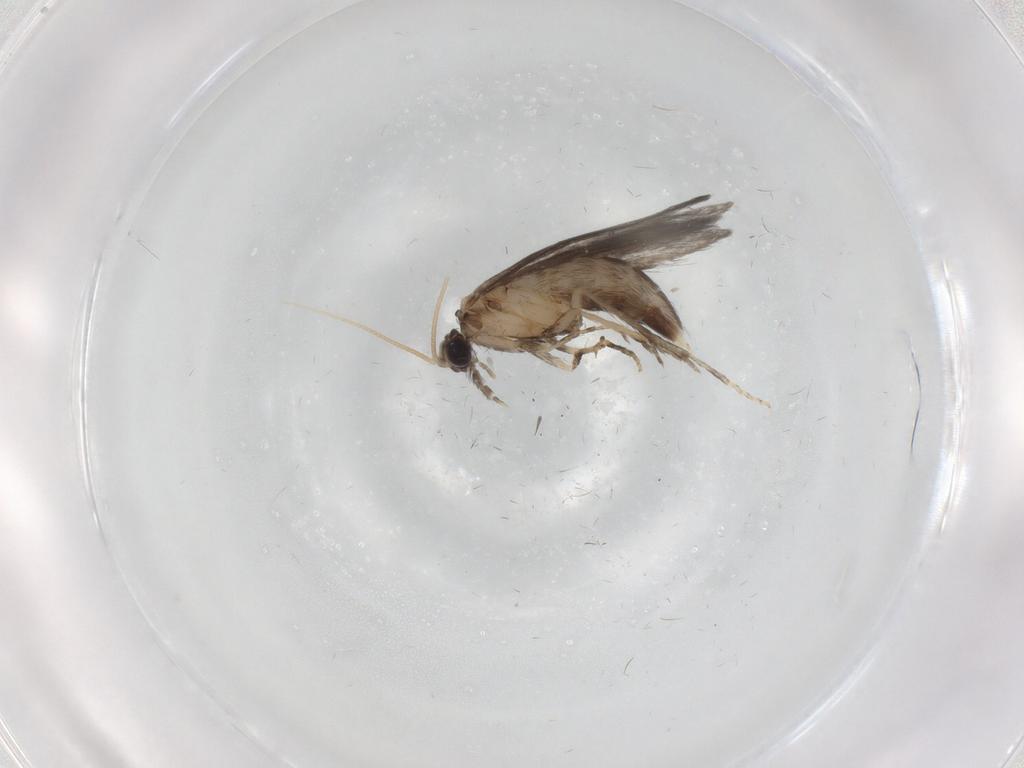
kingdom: Animalia
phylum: Arthropoda
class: Insecta
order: Trichoptera
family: Hydroptilidae
